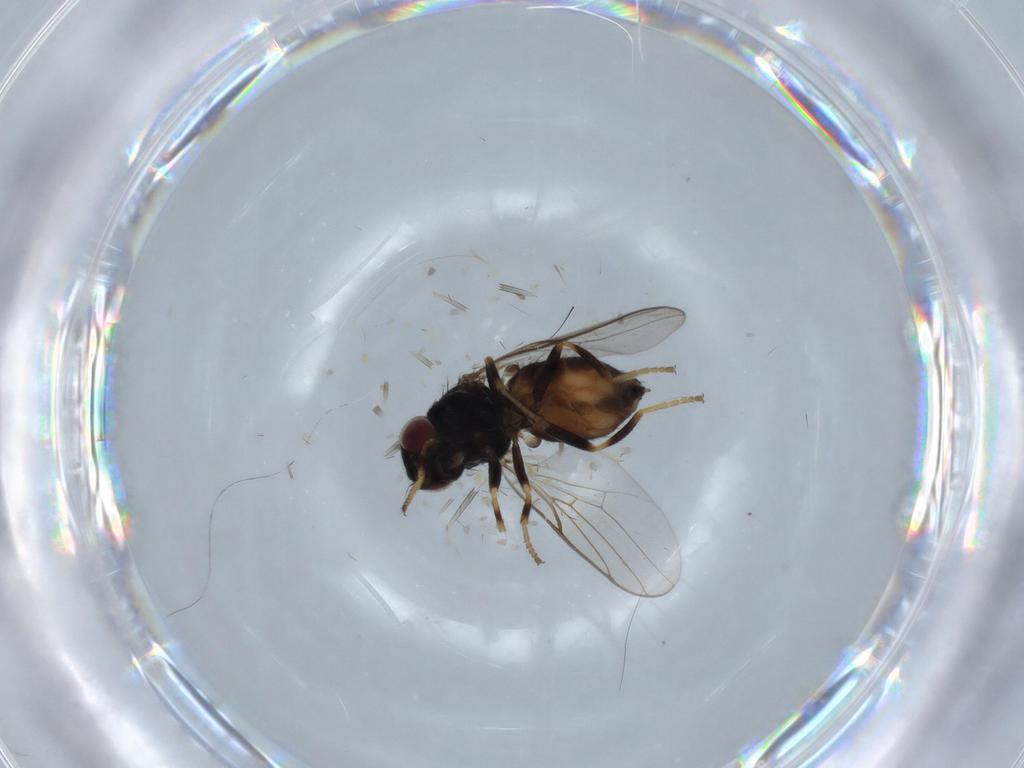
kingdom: Animalia
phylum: Arthropoda
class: Insecta
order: Diptera
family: Chloropidae
